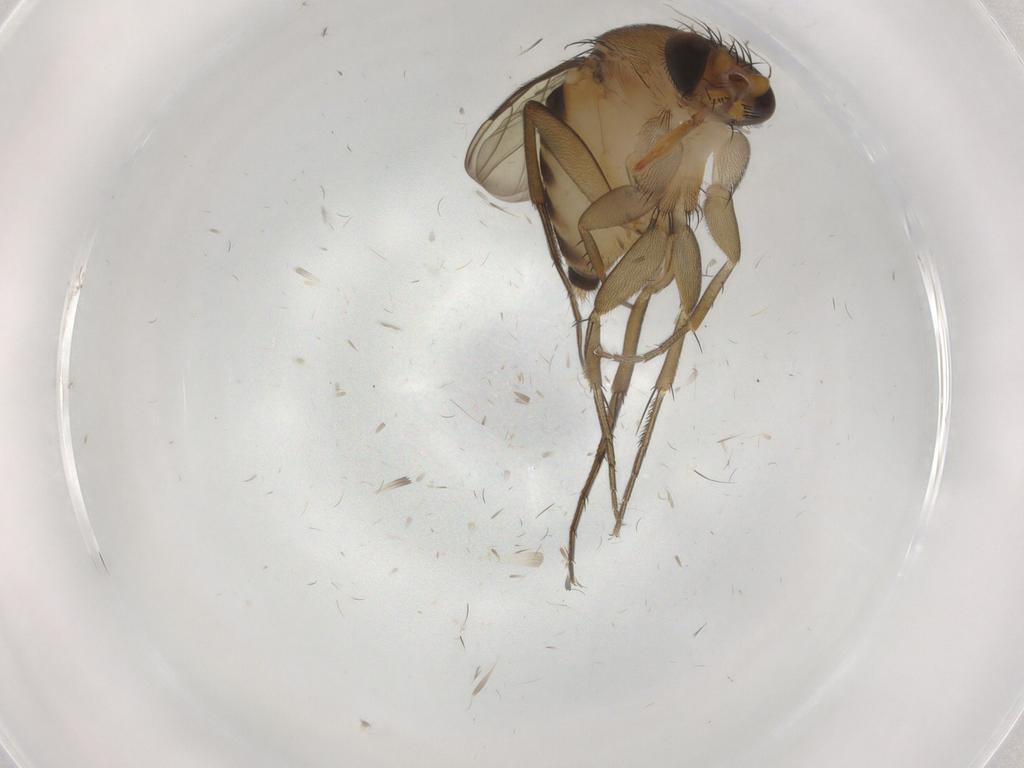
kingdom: Animalia
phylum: Arthropoda
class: Insecta
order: Diptera
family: Phoridae
